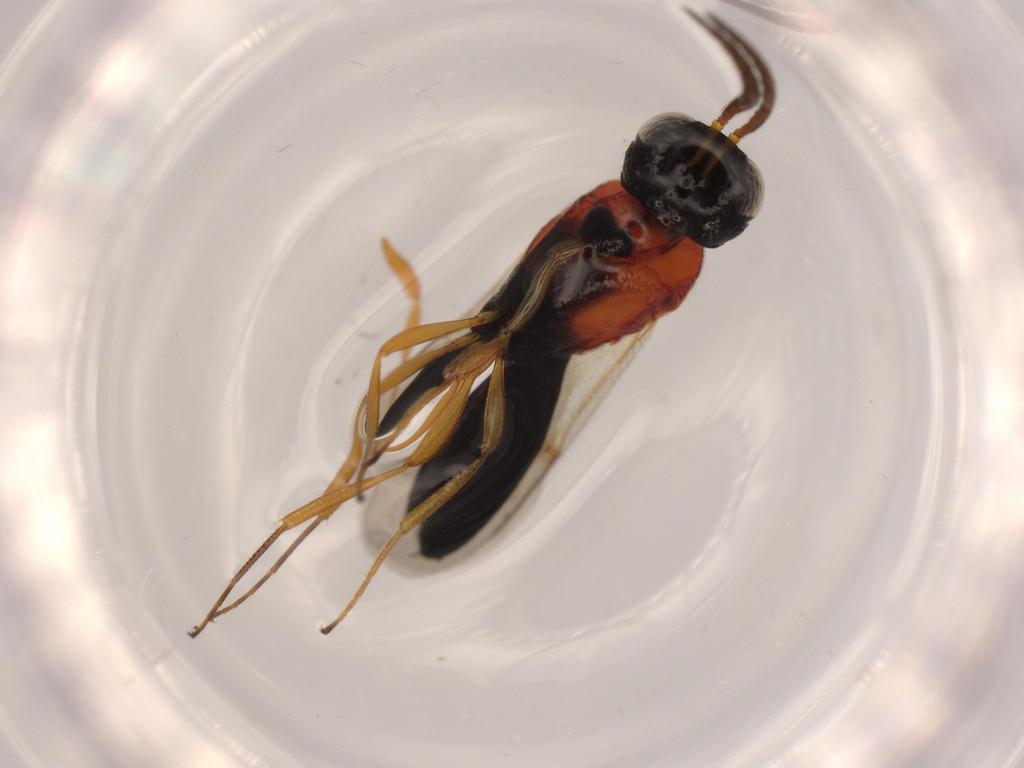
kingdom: Animalia
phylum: Arthropoda
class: Insecta
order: Hymenoptera
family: Scelionidae
